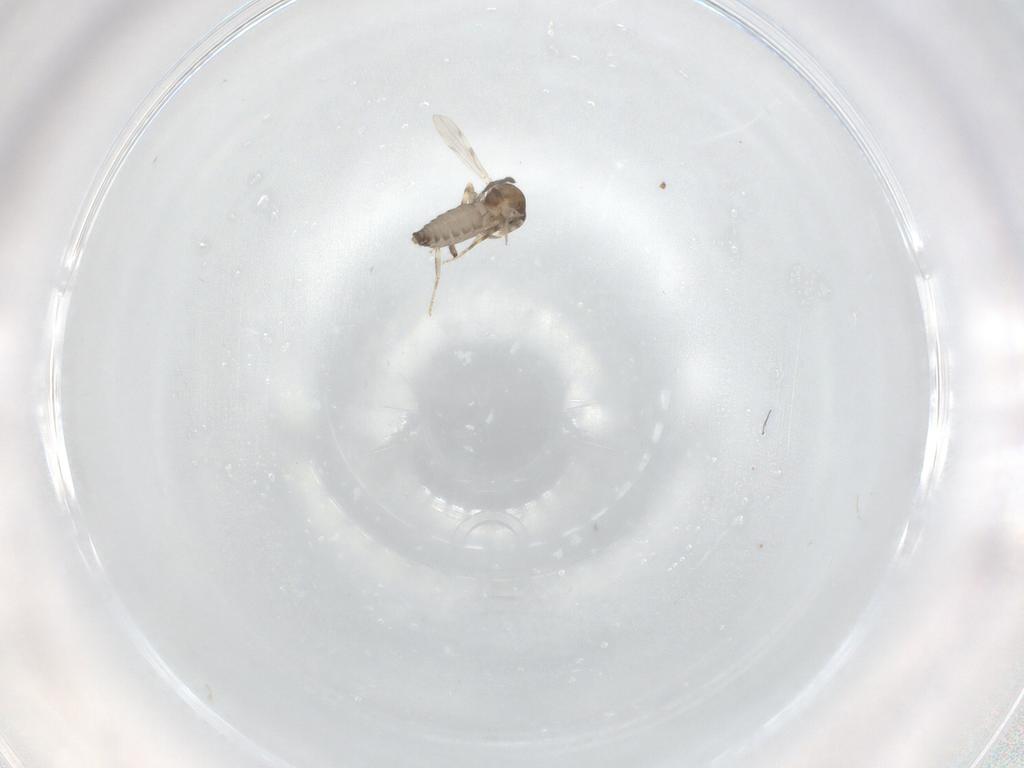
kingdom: Animalia
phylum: Arthropoda
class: Insecta
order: Diptera
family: Ceratopogonidae
